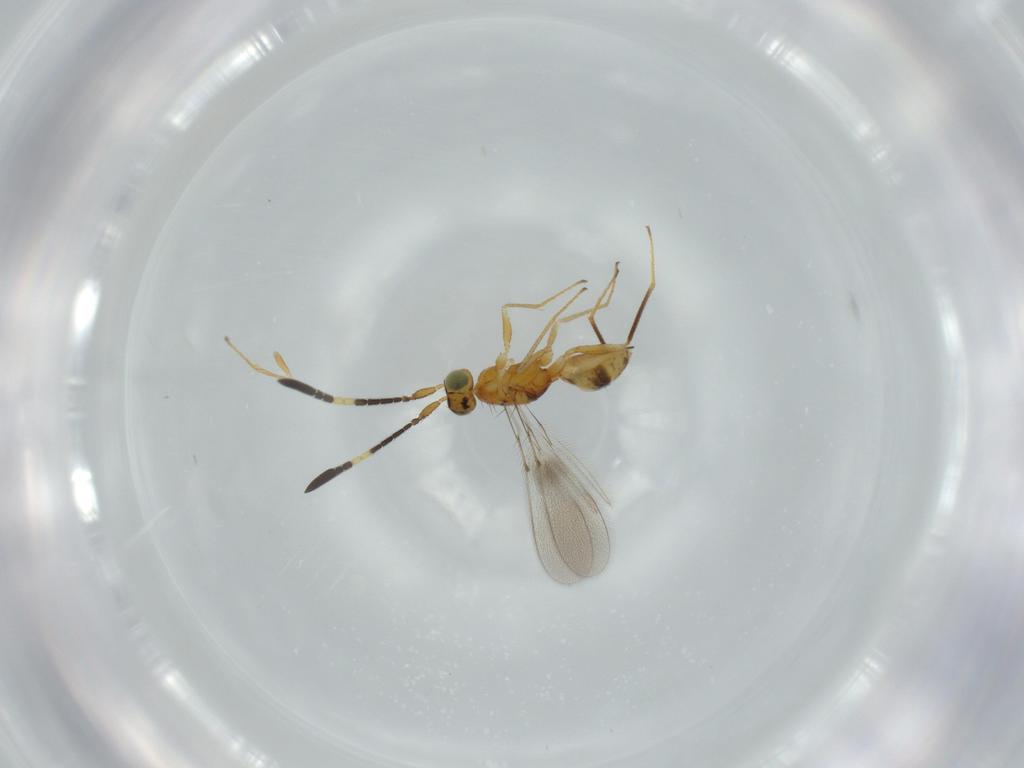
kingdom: Animalia
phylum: Arthropoda
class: Insecta
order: Hymenoptera
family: Mymaridae
